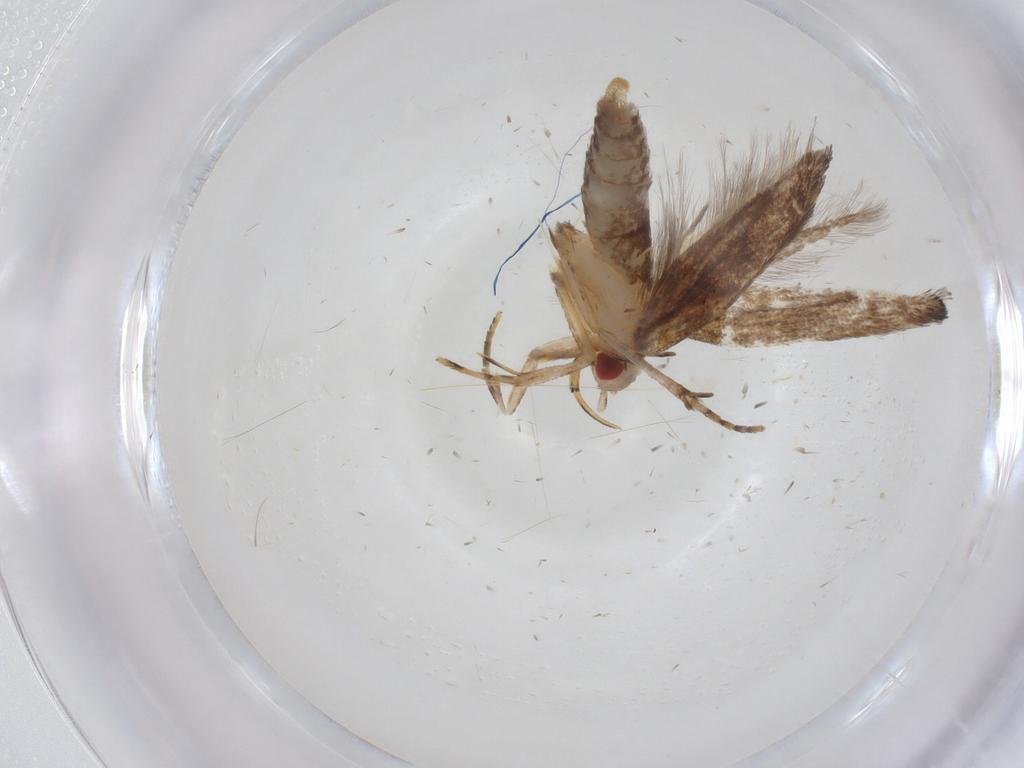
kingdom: Animalia
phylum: Arthropoda
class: Insecta
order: Lepidoptera
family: Cosmopterigidae
